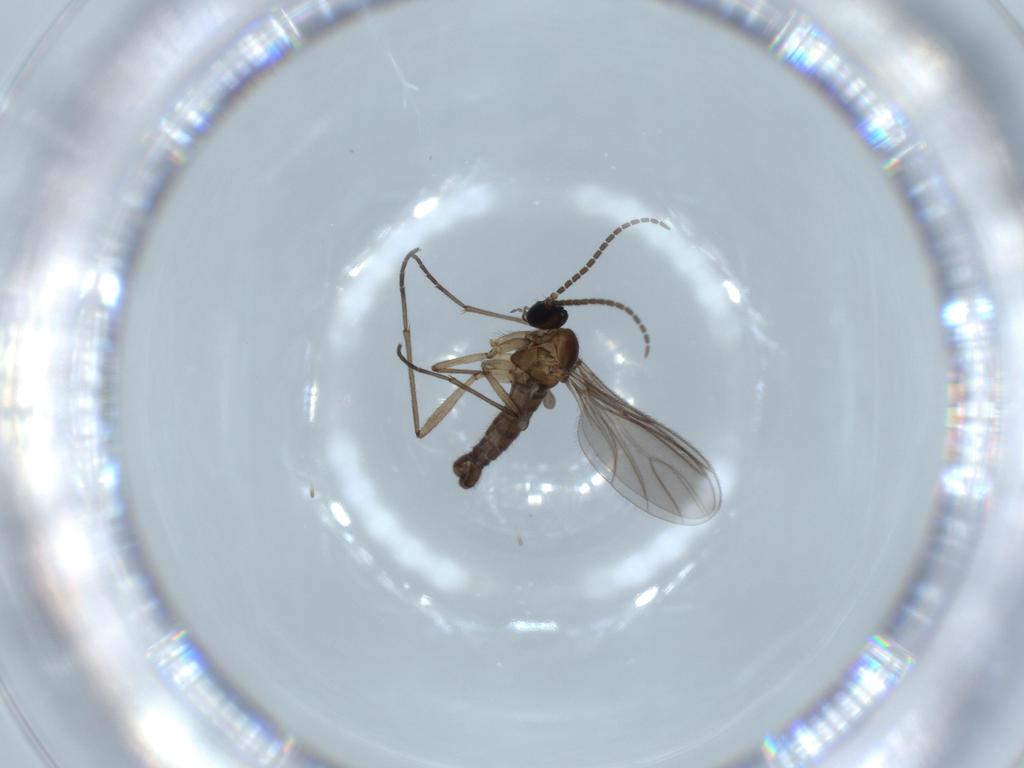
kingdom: Animalia
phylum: Arthropoda
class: Insecta
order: Diptera
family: Sciaridae
